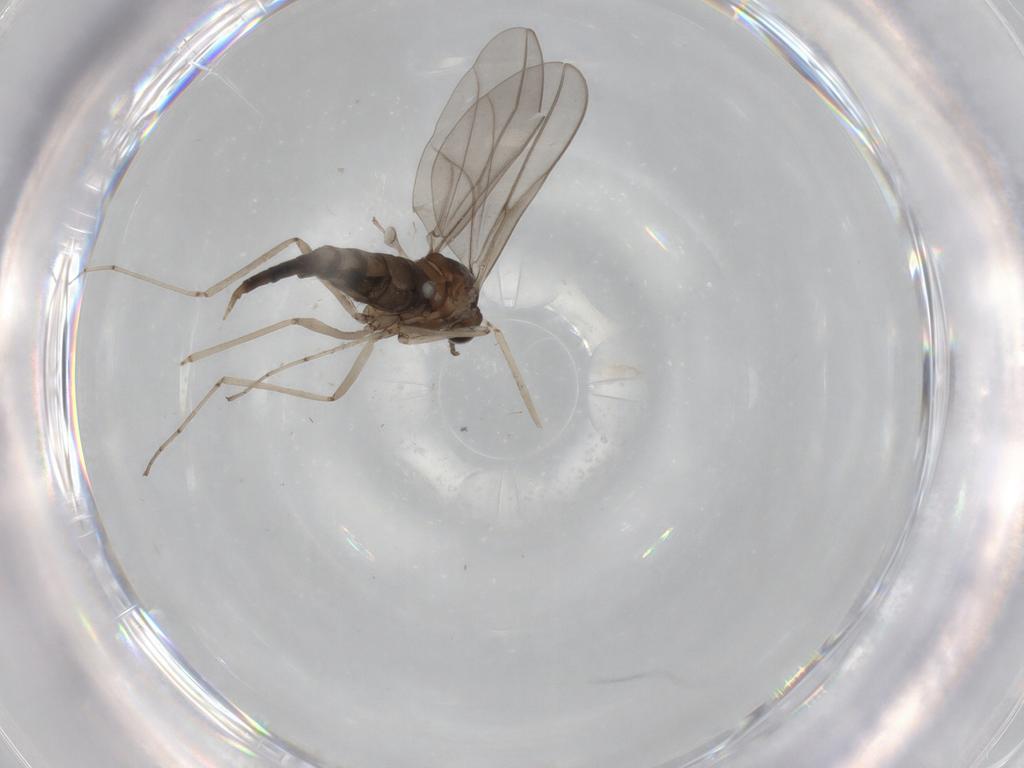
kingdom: Animalia
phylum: Arthropoda
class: Insecta
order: Diptera
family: Cecidomyiidae
